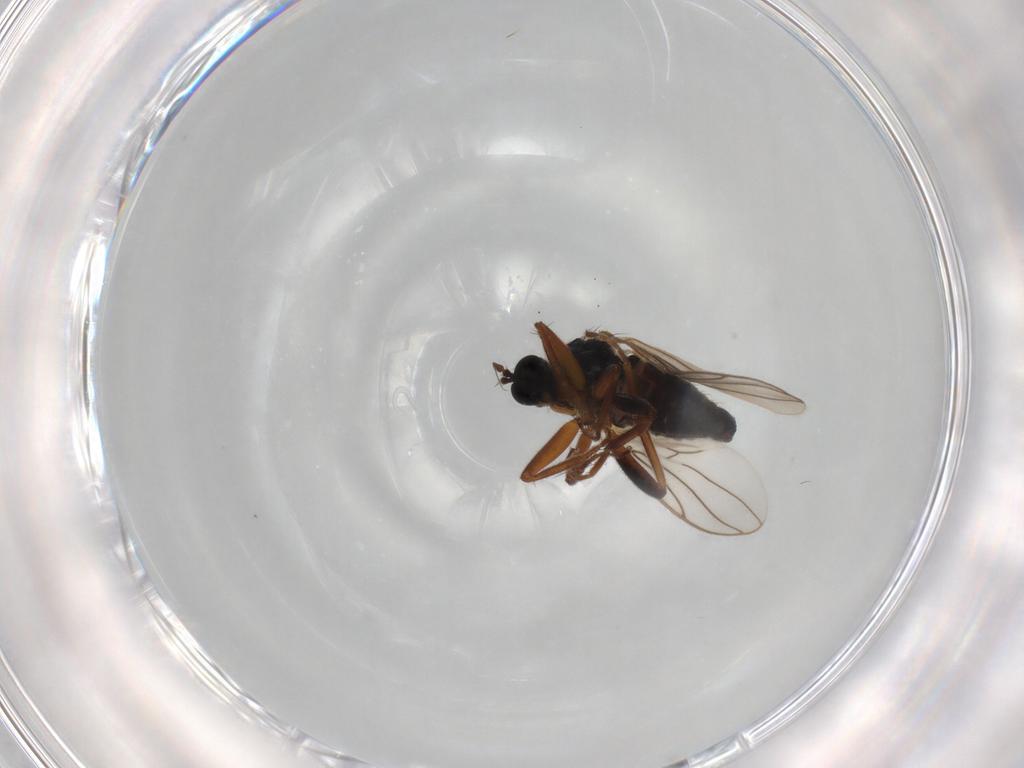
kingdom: Animalia
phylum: Arthropoda
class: Insecta
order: Diptera
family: Hybotidae
